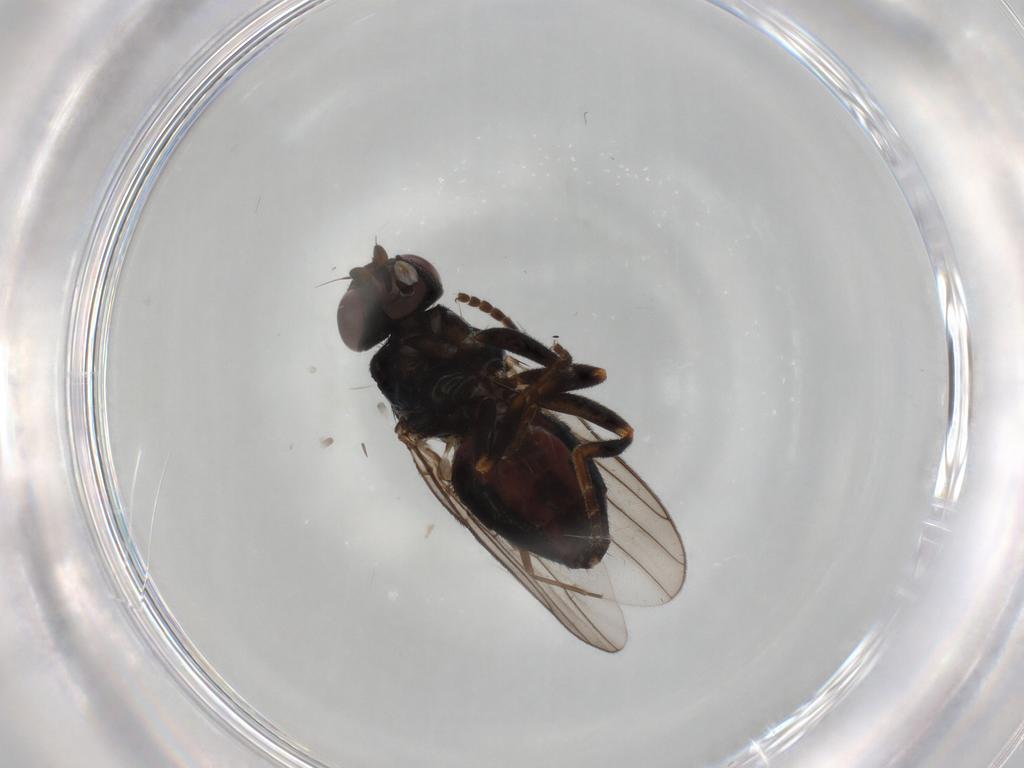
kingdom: Animalia
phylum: Arthropoda
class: Insecta
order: Diptera
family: Chloropidae
